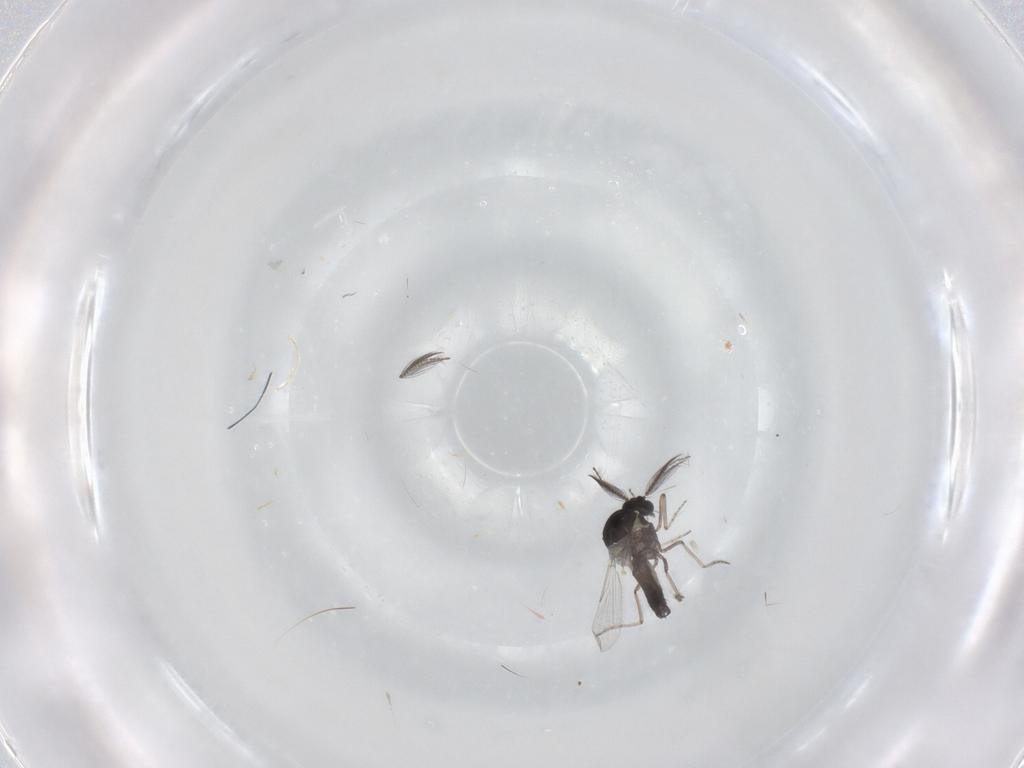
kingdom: Animalia
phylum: Arthropoda
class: Insecta
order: Diptera
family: Ceratopogonidae
